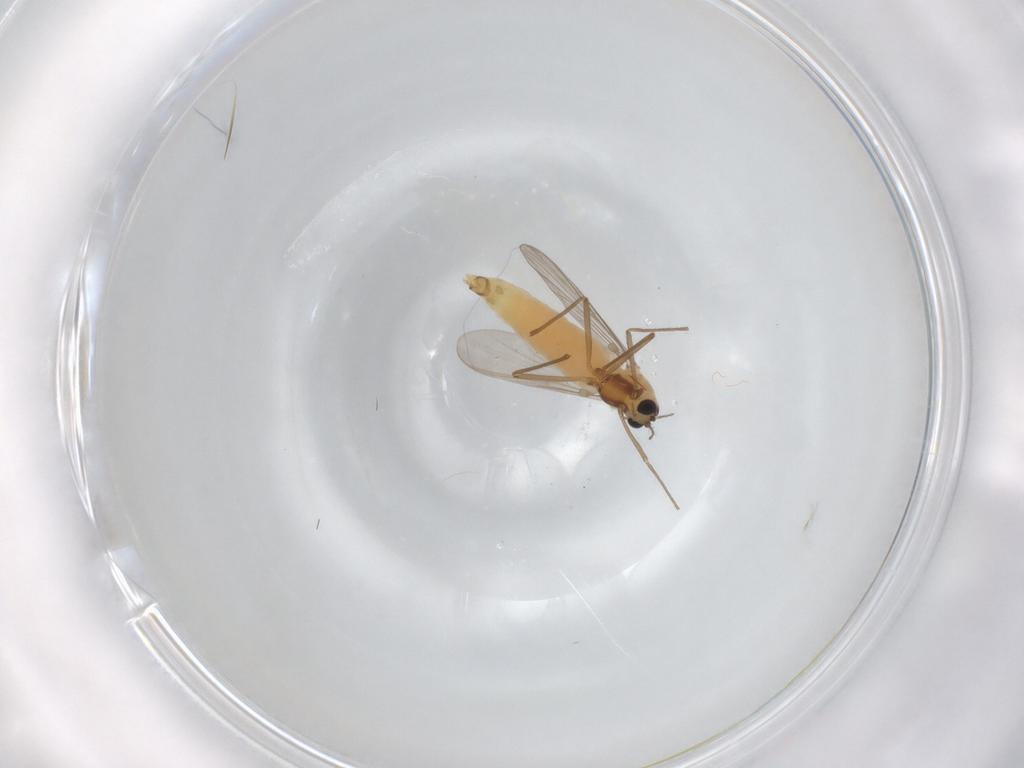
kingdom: Animalia
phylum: Arthropoda
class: Insecta
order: Diptera
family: Chironomidae
